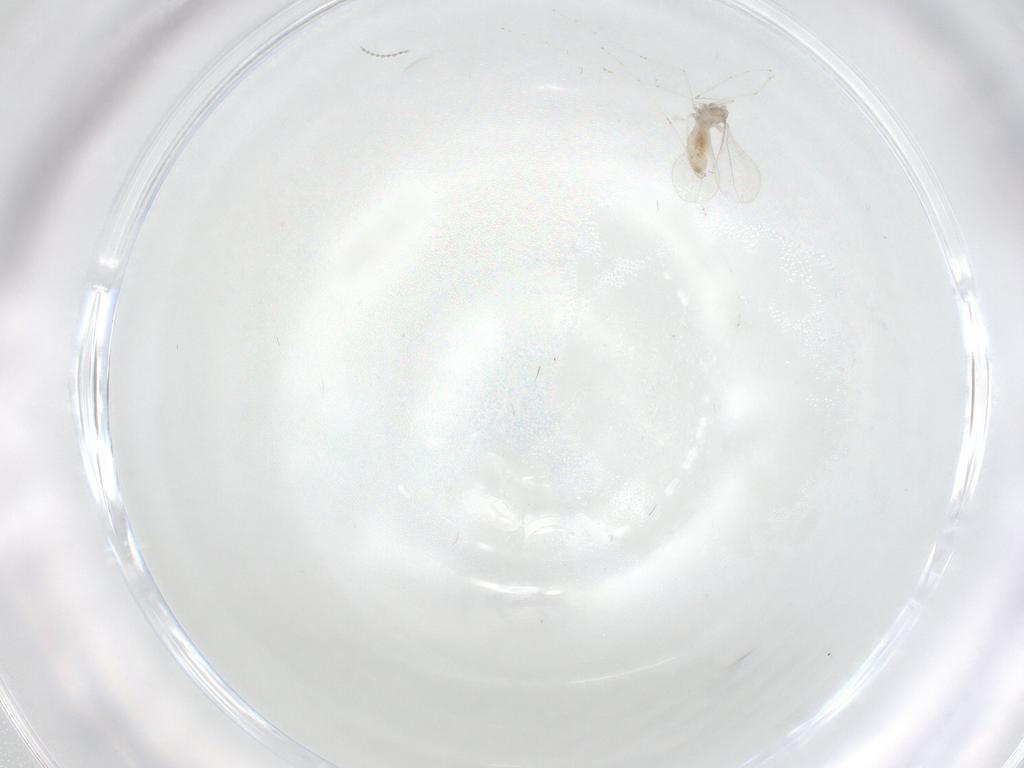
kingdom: Animalia
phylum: Arthropoda
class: Insecta
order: Diptera
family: Cecidomyiidae
